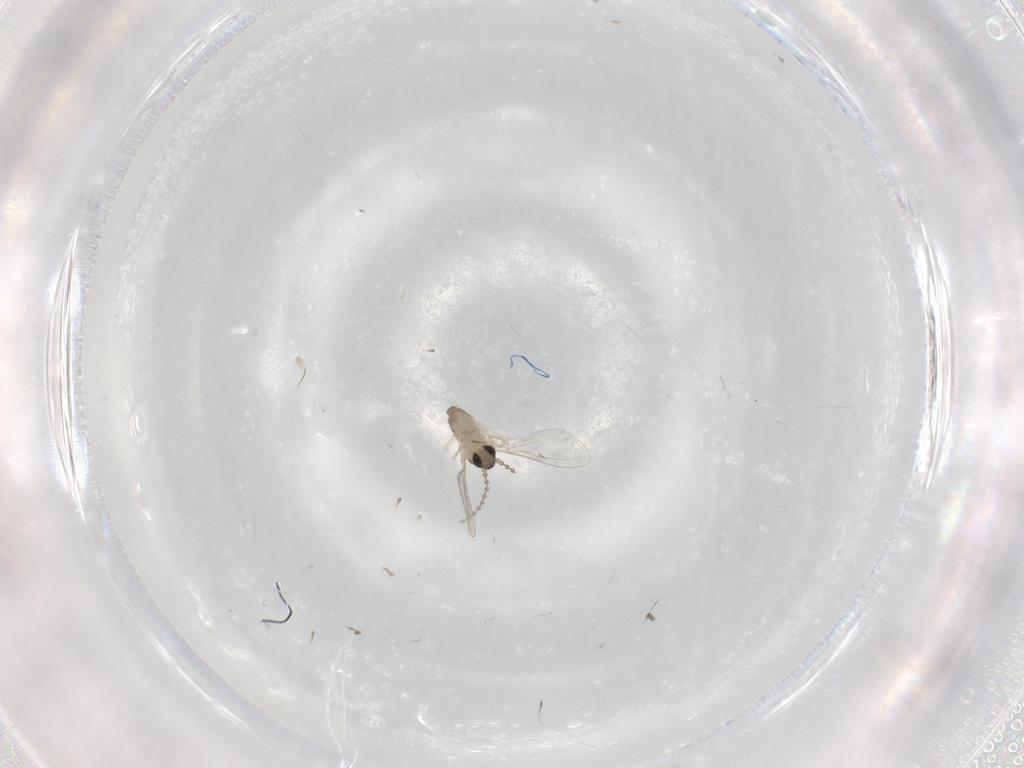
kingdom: Animalia
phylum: Arthropoda
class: Insecta
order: Diptera
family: Cecidomyiidae
